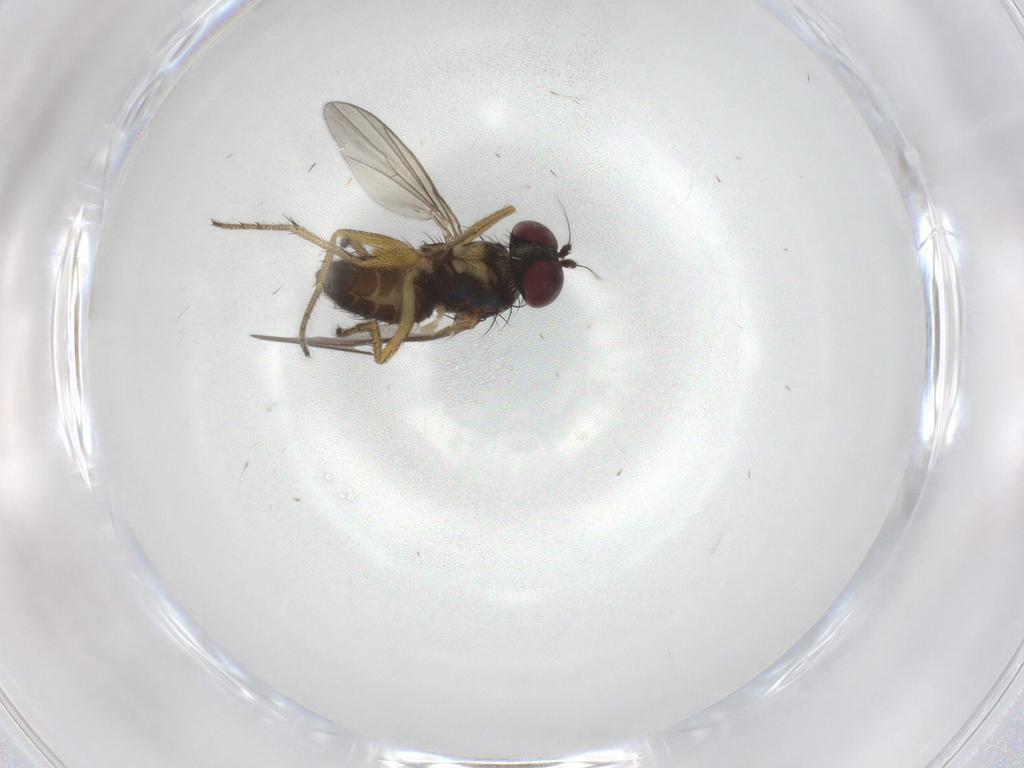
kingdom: Animalia
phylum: Arthropoda
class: Insecta
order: Diptera
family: Dolichopodidae
